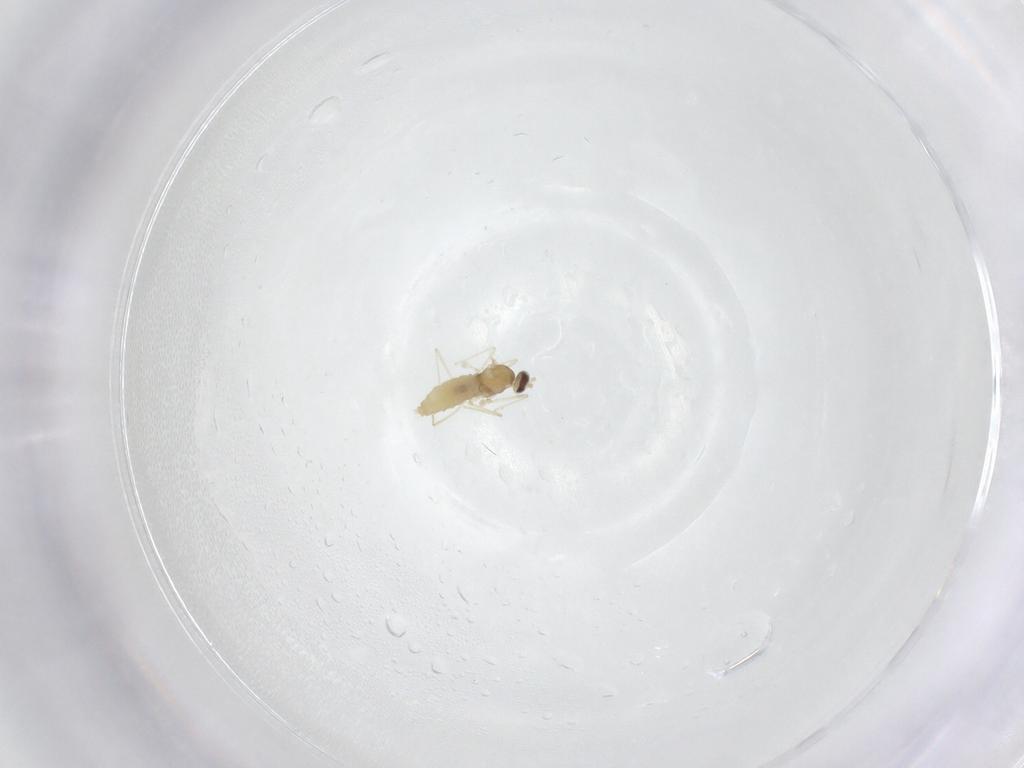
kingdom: Animalia
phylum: Arthropoda
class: Insecta
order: Diptera
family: Cecidomyiidae
